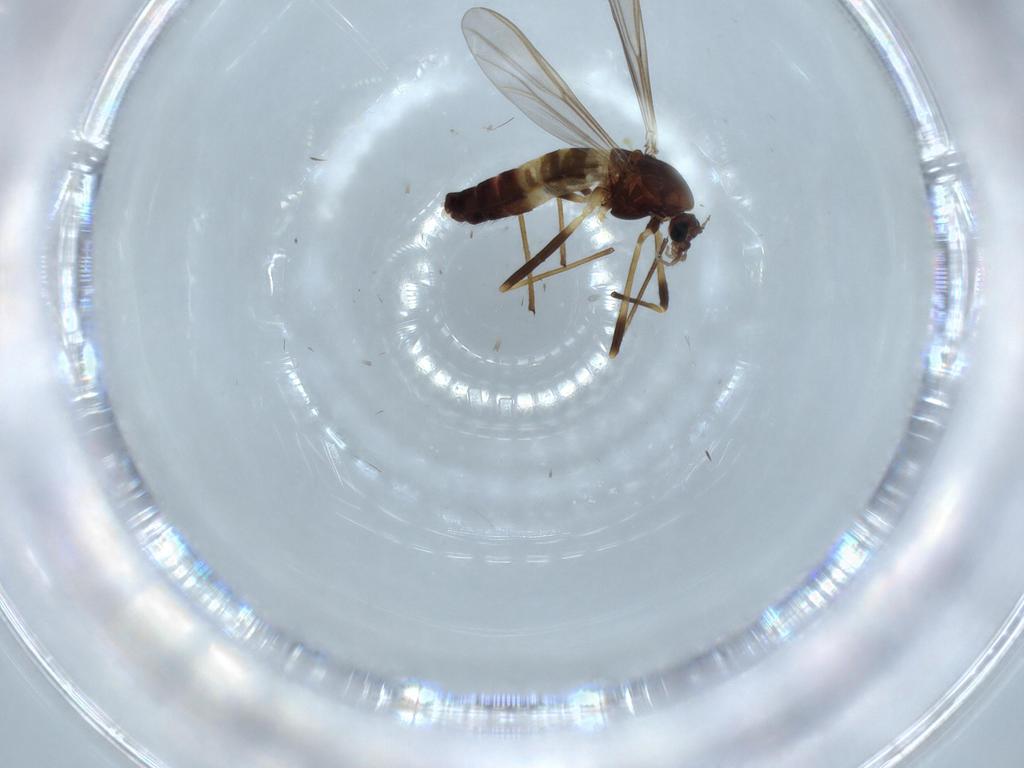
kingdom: Animalia
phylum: Arthropoda
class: Insecta
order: Diptera
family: Chironomidae
